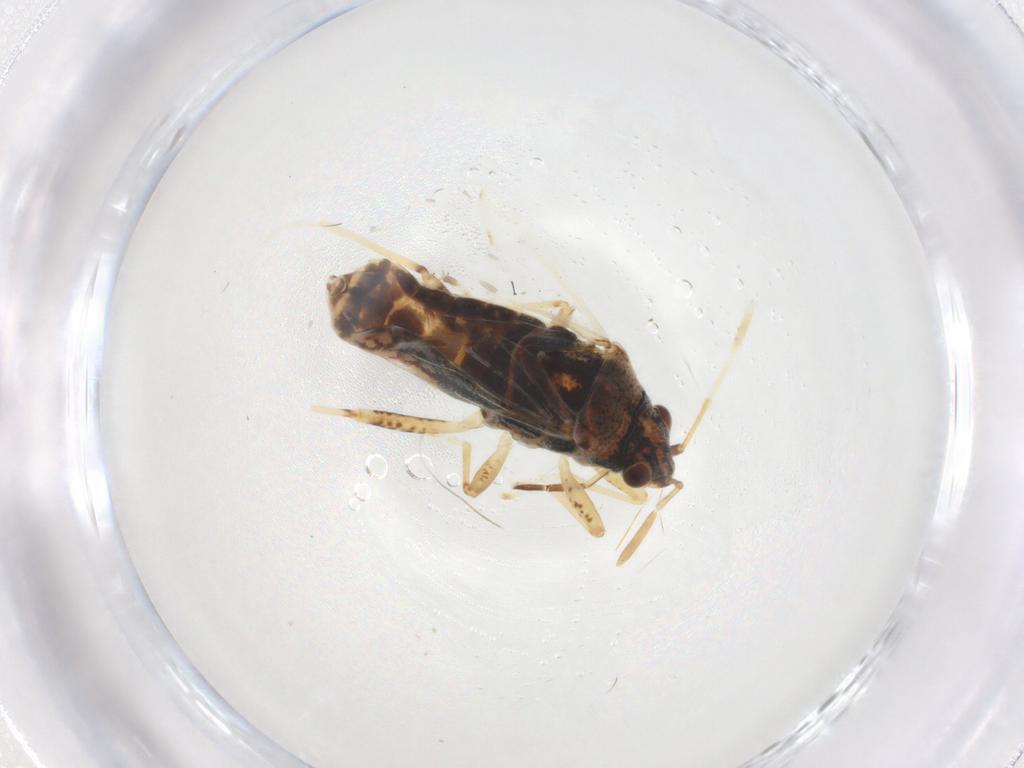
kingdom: Animalia
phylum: Arthropoda
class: Insecta
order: Hemiptera
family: Lygaeidae
